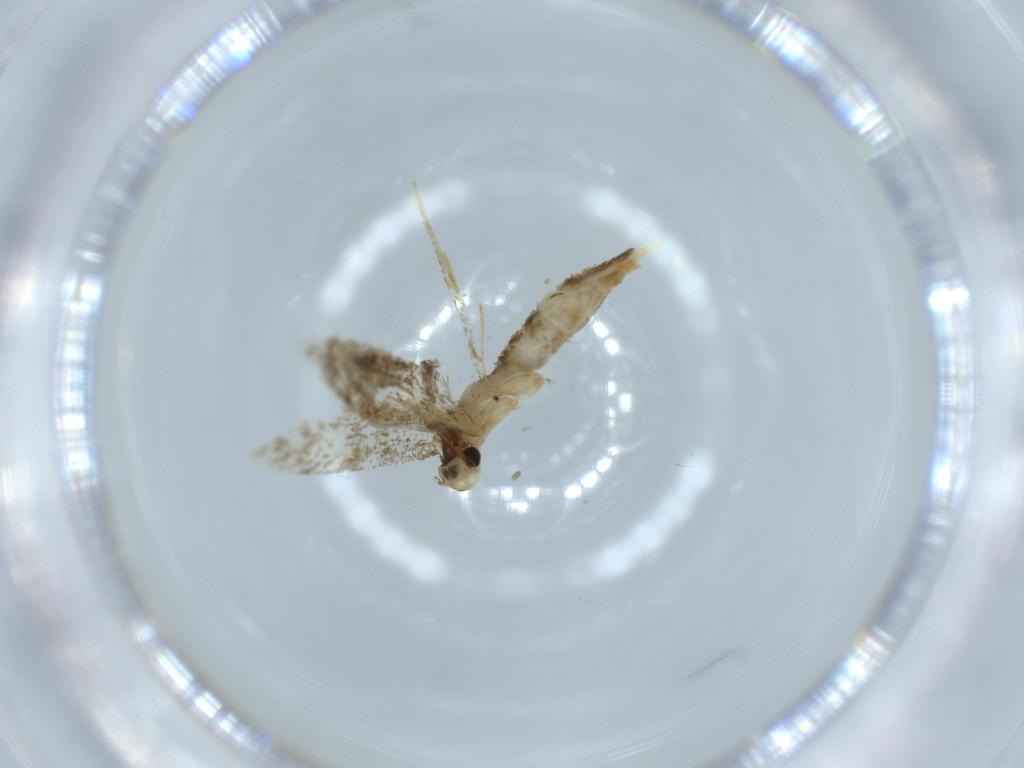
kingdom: Animalia
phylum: Arthropoda
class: Insecta
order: Lepidoptera
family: Tineidae
